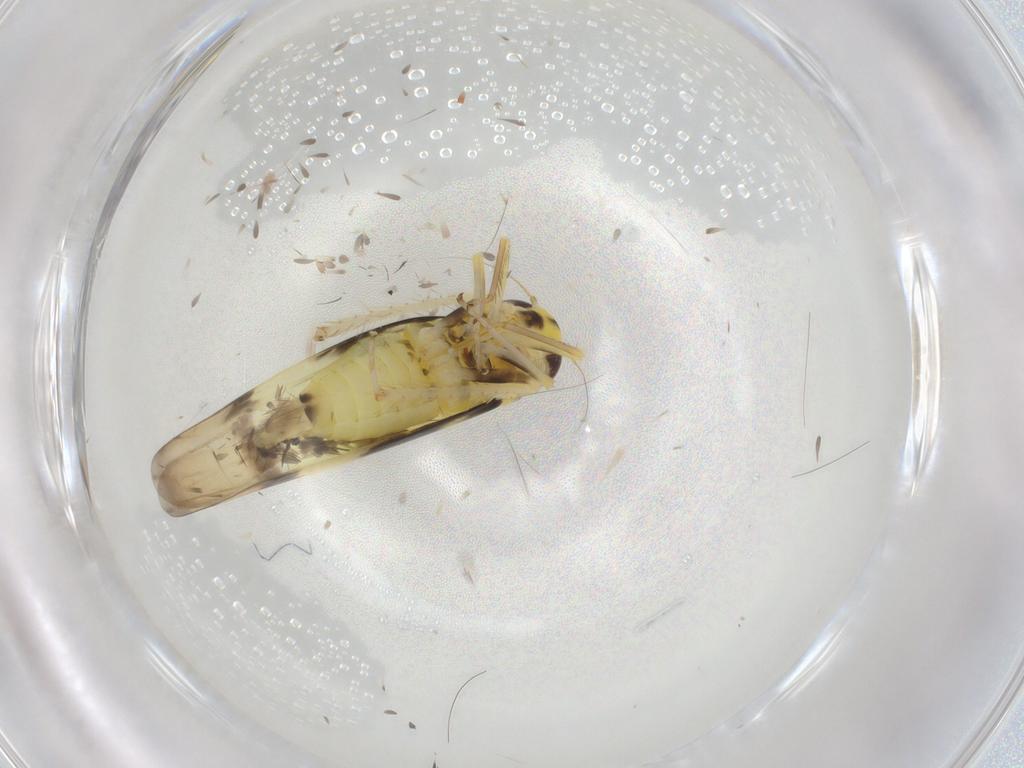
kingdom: Animalia
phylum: Arthropoda
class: Insecta
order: Hemiptera
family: Cicadellidae
